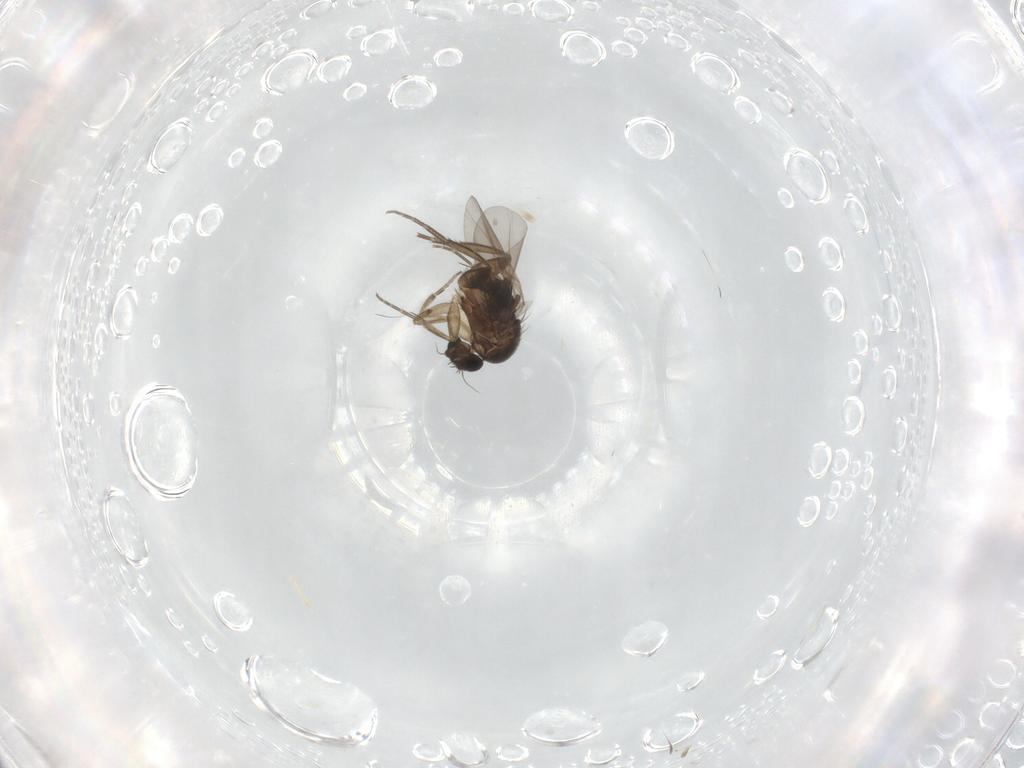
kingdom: Animalia
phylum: Arthropoda
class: Insecta
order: Diptera
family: Phoridae
